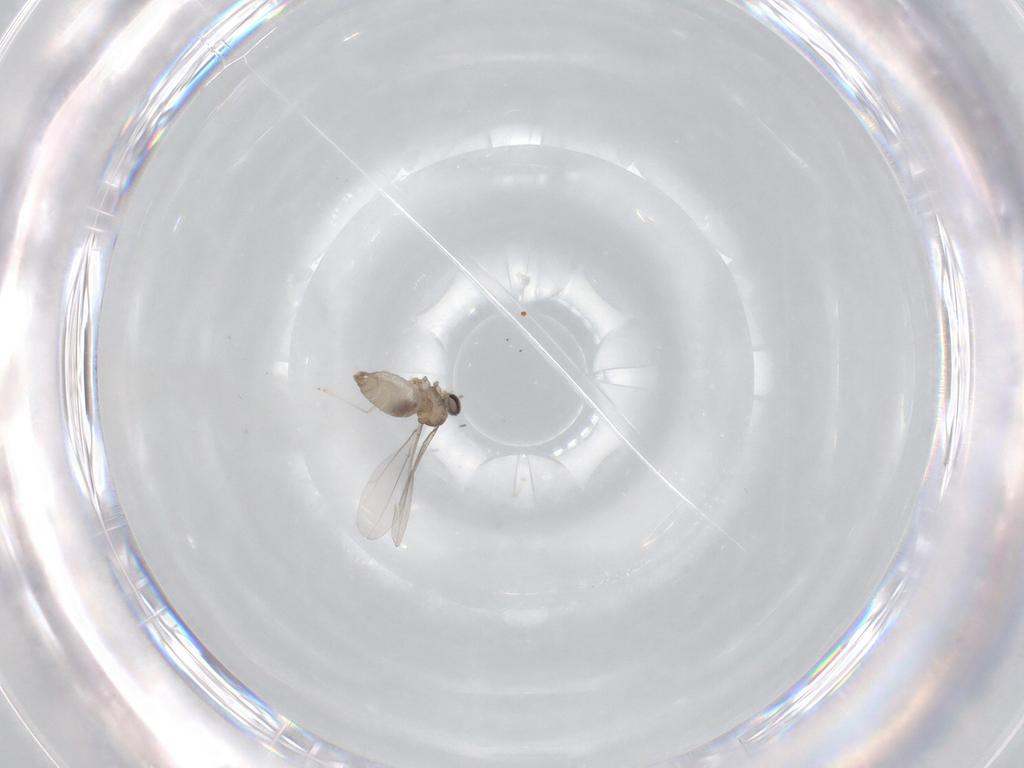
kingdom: Animalia
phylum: Arthropoda
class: Insecta
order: Diptera
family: Cecidomyiidae
